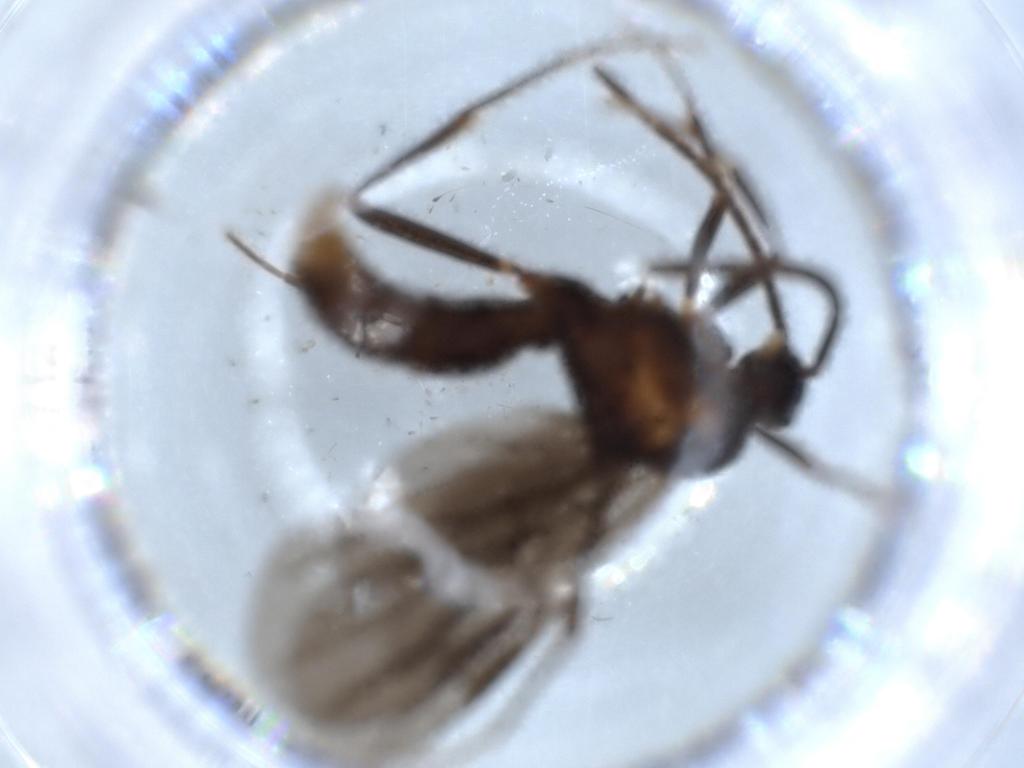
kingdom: Animalia
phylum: Arthropoda
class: Insecta
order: Hymenoptera
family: Formicidae
